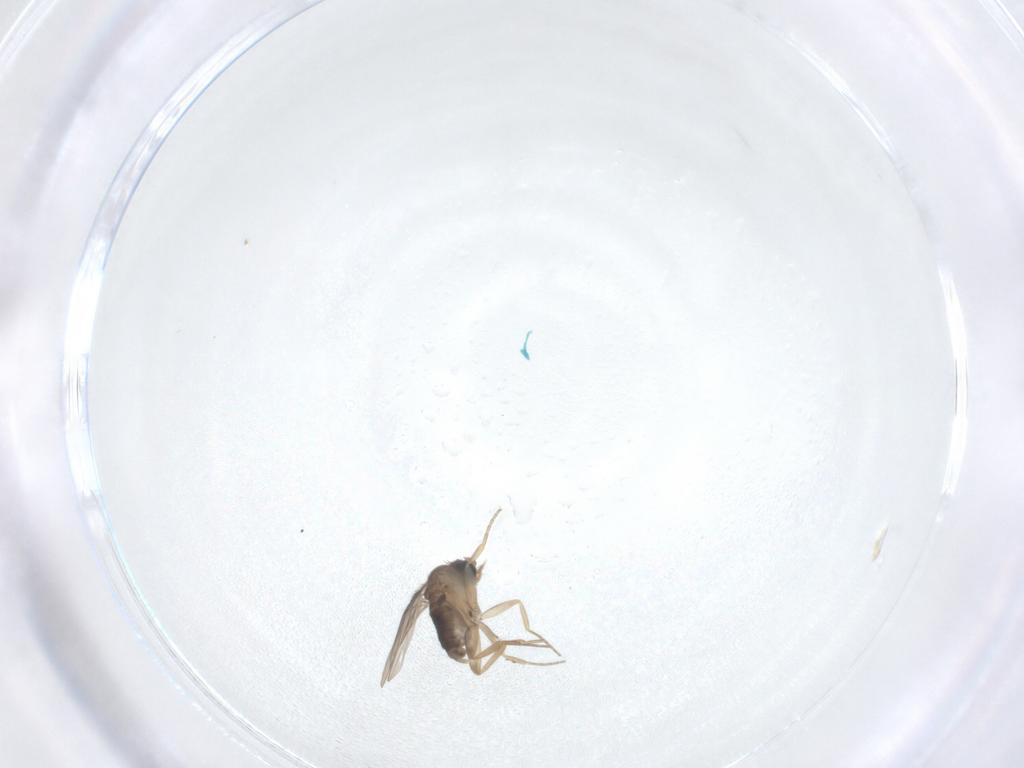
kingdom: Animalia
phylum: Arthropoda
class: Insecta
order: Diptera
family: Phoridae
